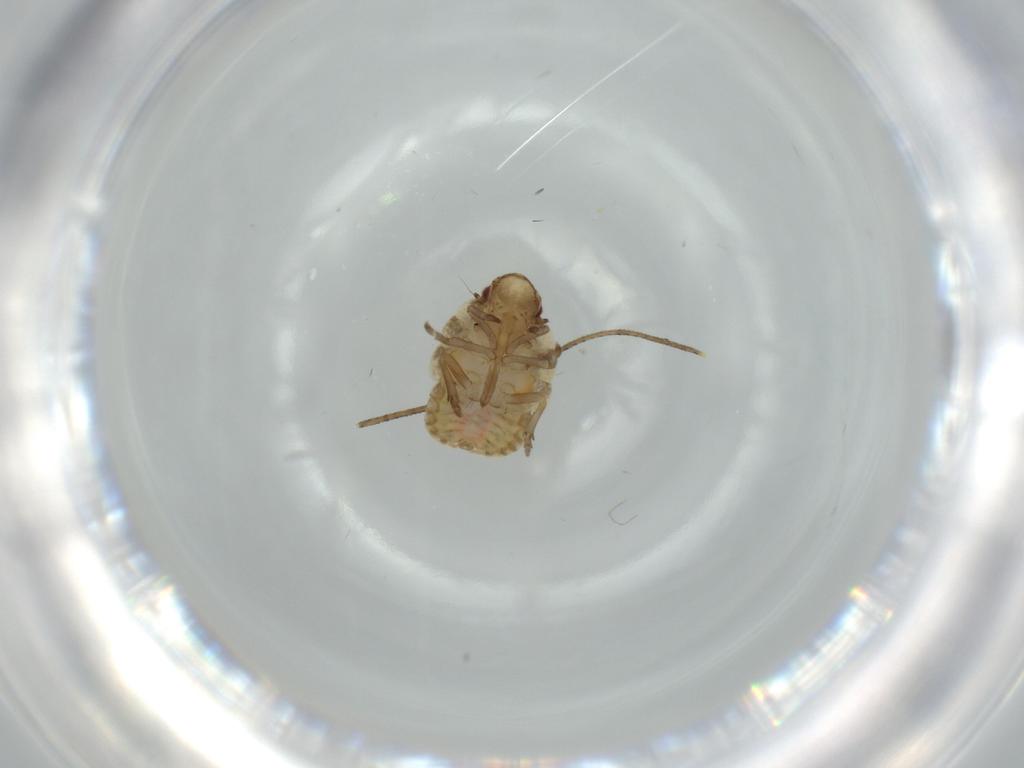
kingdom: Animalia
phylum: Arthropoda
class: Insecta
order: Hemiptera
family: Flatidae
